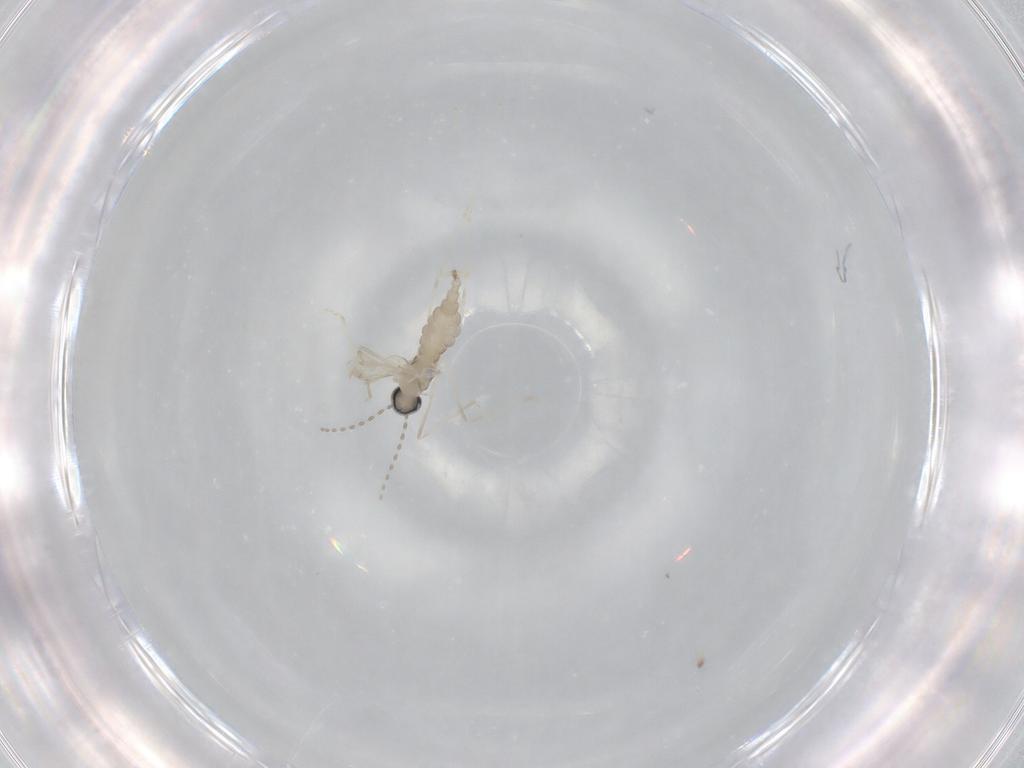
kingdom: Animalia
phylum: Arthropoda
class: Insecta
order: Diptera
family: Cecidomyiidae
